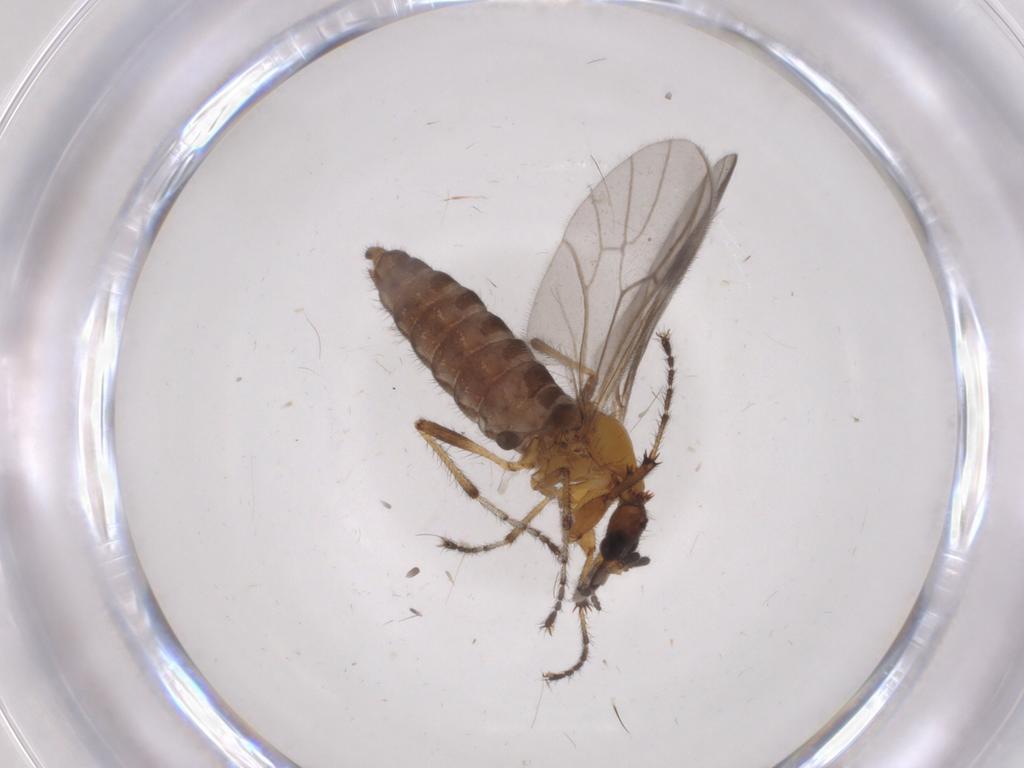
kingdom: Animalia
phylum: Arthropoda
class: Insecta
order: Diptera
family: Bibionidae
